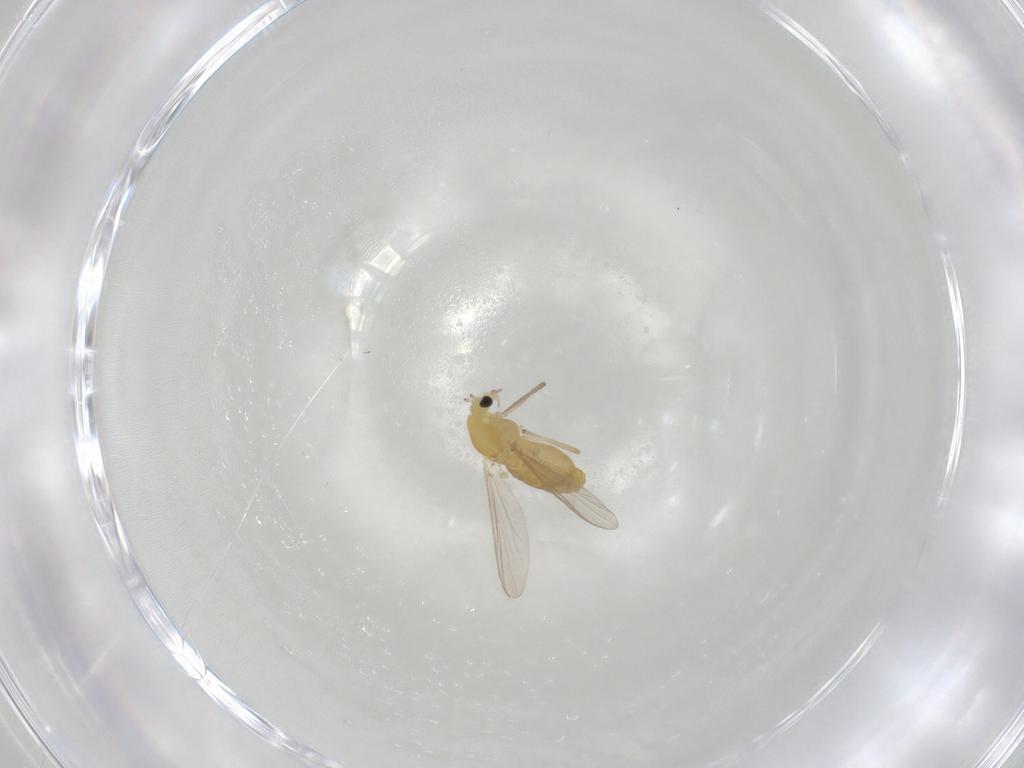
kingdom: Animalia
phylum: Arthropoda
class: Insecta
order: Diptera
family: Chironomidae
